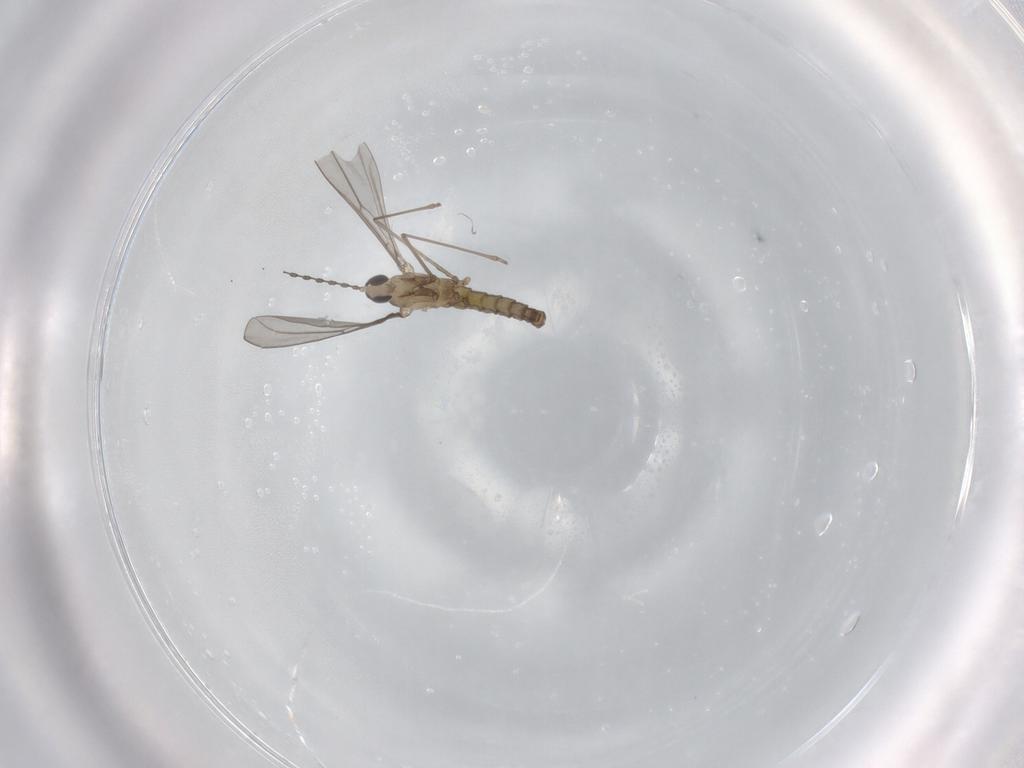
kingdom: Animalia
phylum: Arthropoda
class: Insecta
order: Diptera
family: Cecidomyiidae
